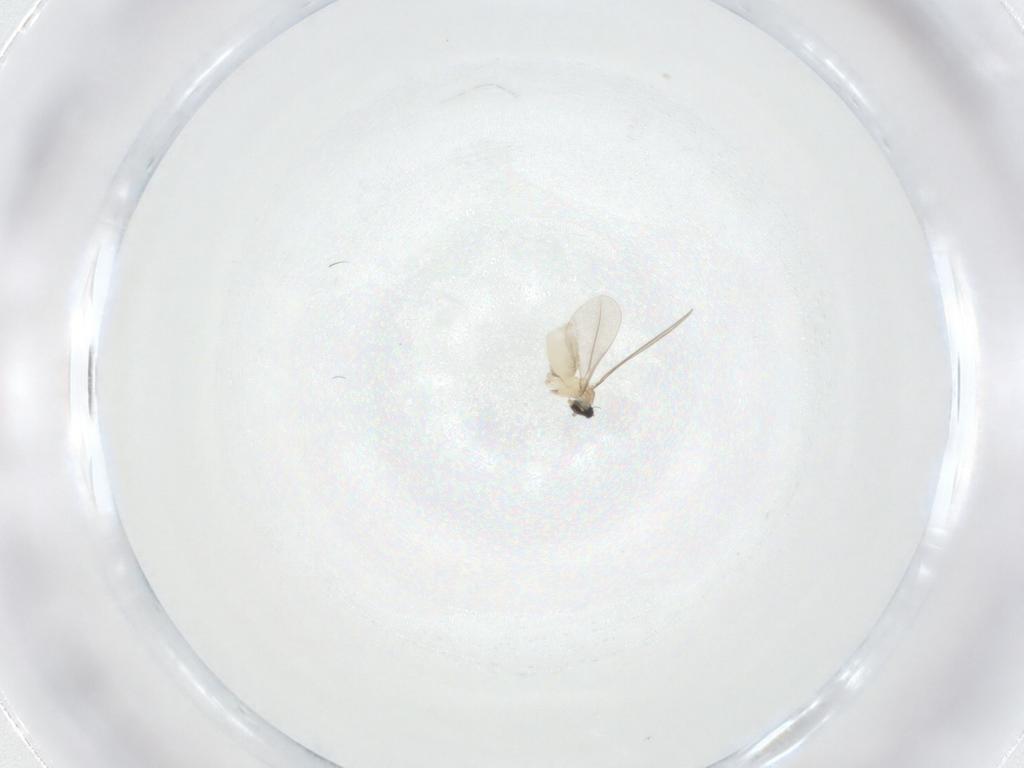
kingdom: Animalia
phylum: Arthropoda
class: Insecta
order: Diptera
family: Cecidomyiidae
